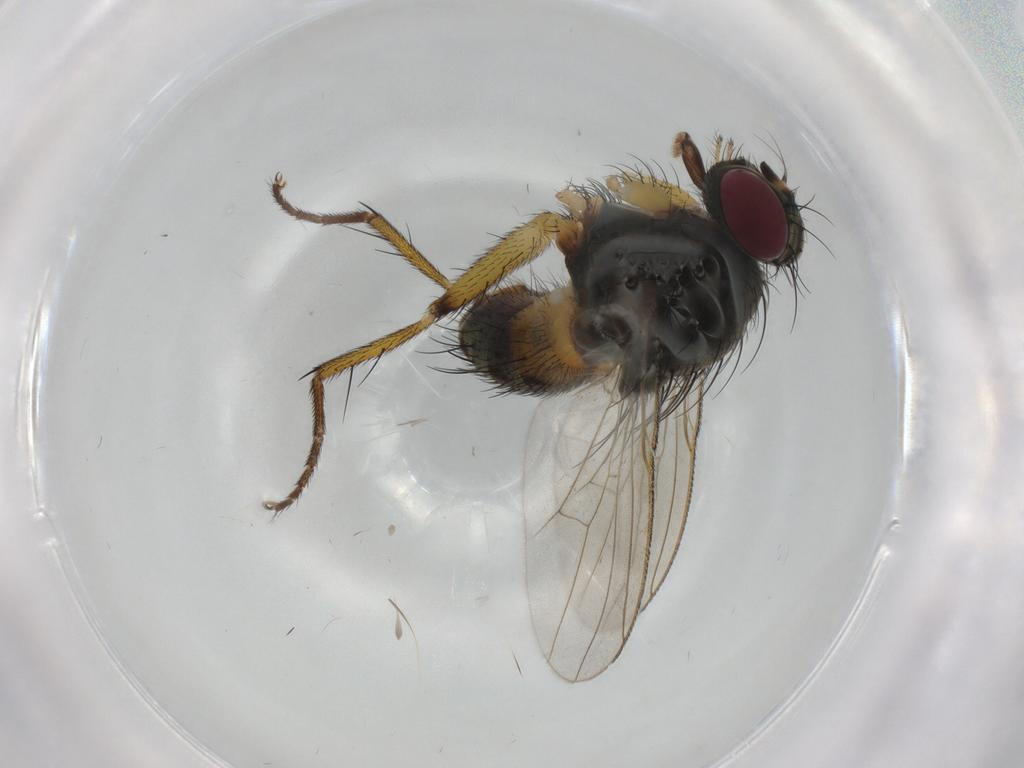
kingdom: Animalia
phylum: Arthropoda
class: Insecta
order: Diptera
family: Muscidae
